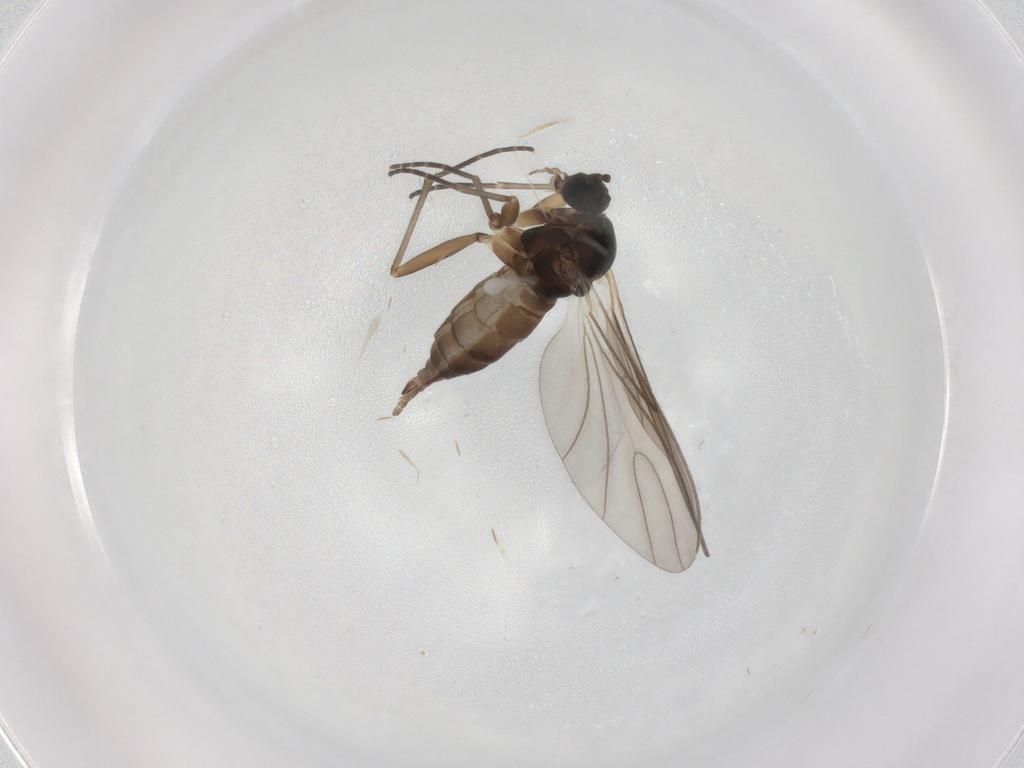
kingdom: Animalia
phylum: Arthropoda
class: Insecta
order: Diptera
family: Sciaridae
